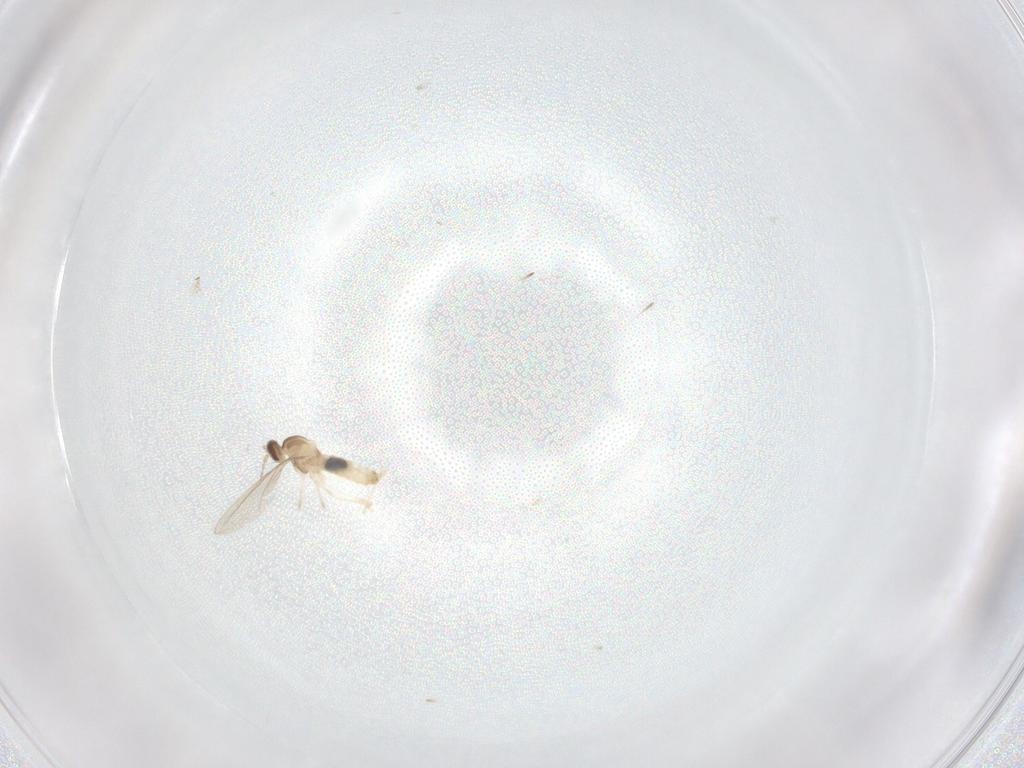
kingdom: Animalia
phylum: Arthropoda
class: Insecta
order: Diptera
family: Cecidomyiidae
